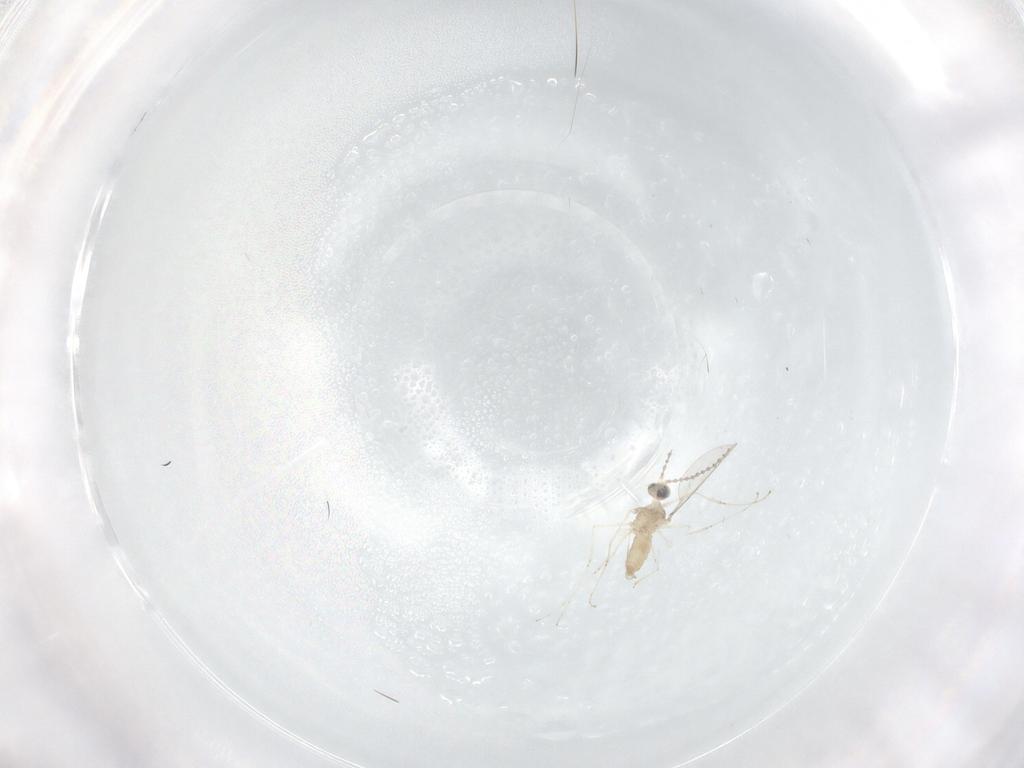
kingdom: Animalia
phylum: Arthropoda
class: Insecta
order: Diptera
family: Cecidomyiidae
